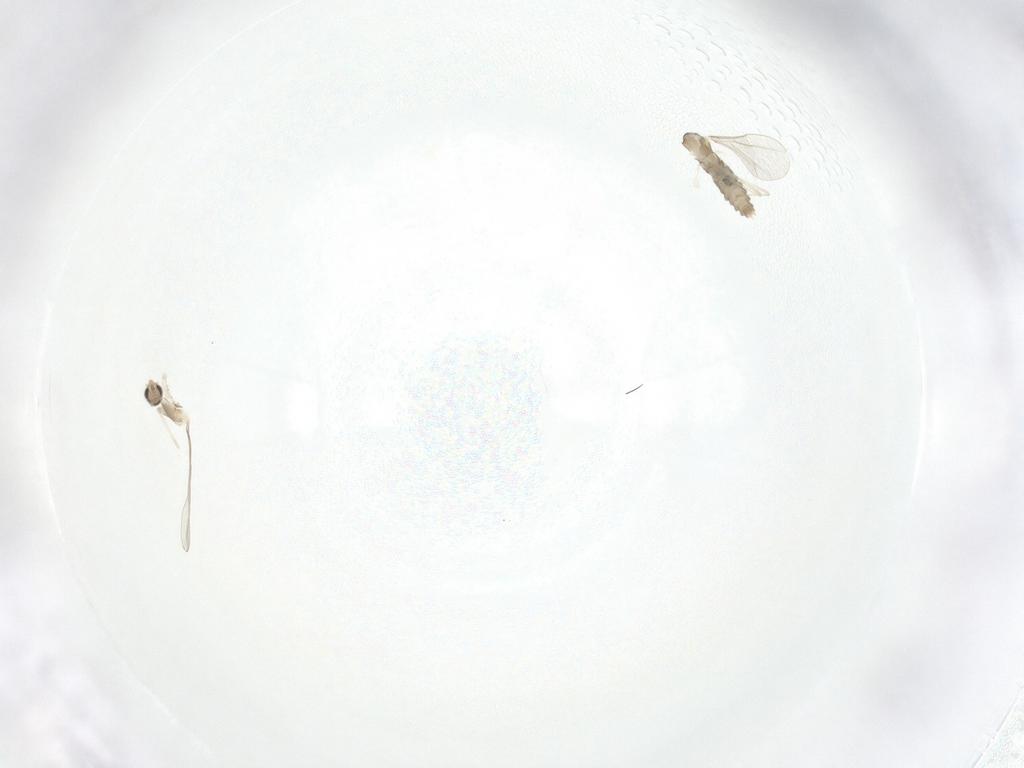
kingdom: Animalia
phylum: Arthropoda
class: Insecta
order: Diptera
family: Cecidomyiidae
